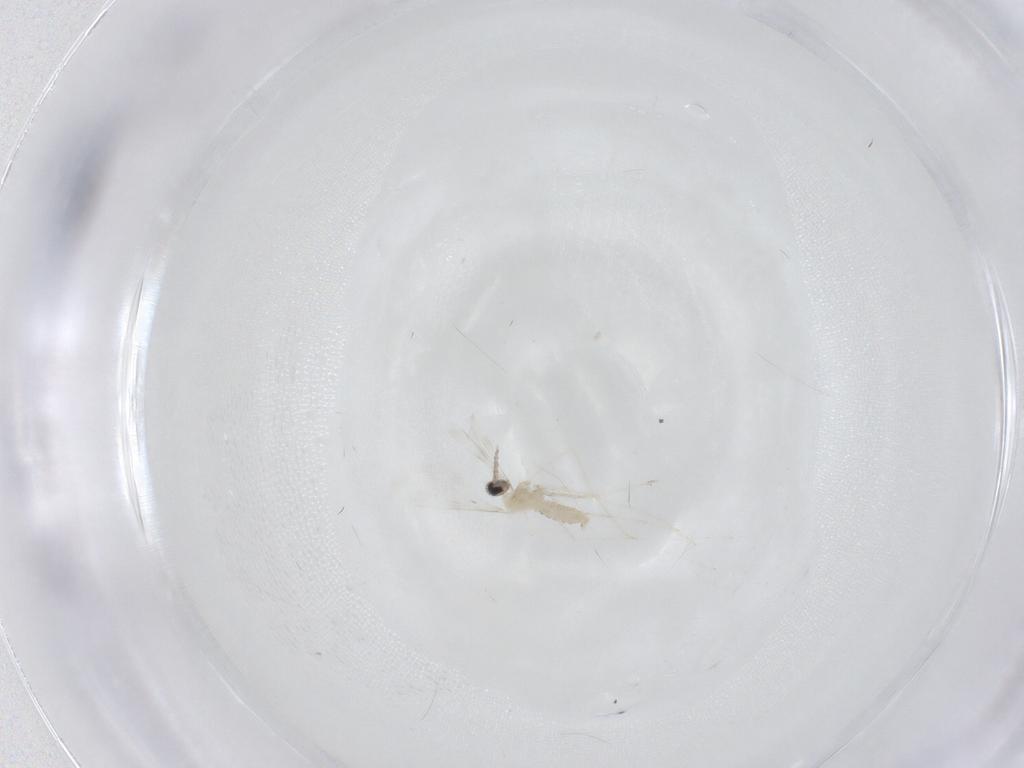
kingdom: Animalia
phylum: Arthropoda
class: Insecta
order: Diptera
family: Cecidomyiidae
